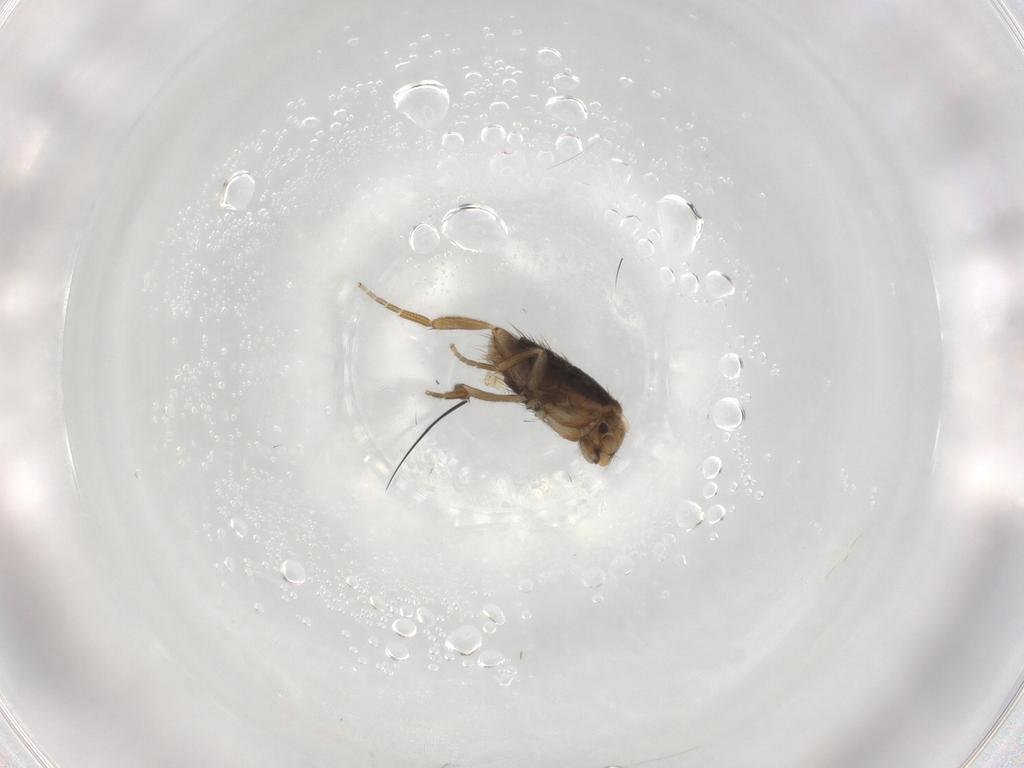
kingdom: Animalia
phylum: Arthropoda
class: Insecta
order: Diptera
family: Phoridae
